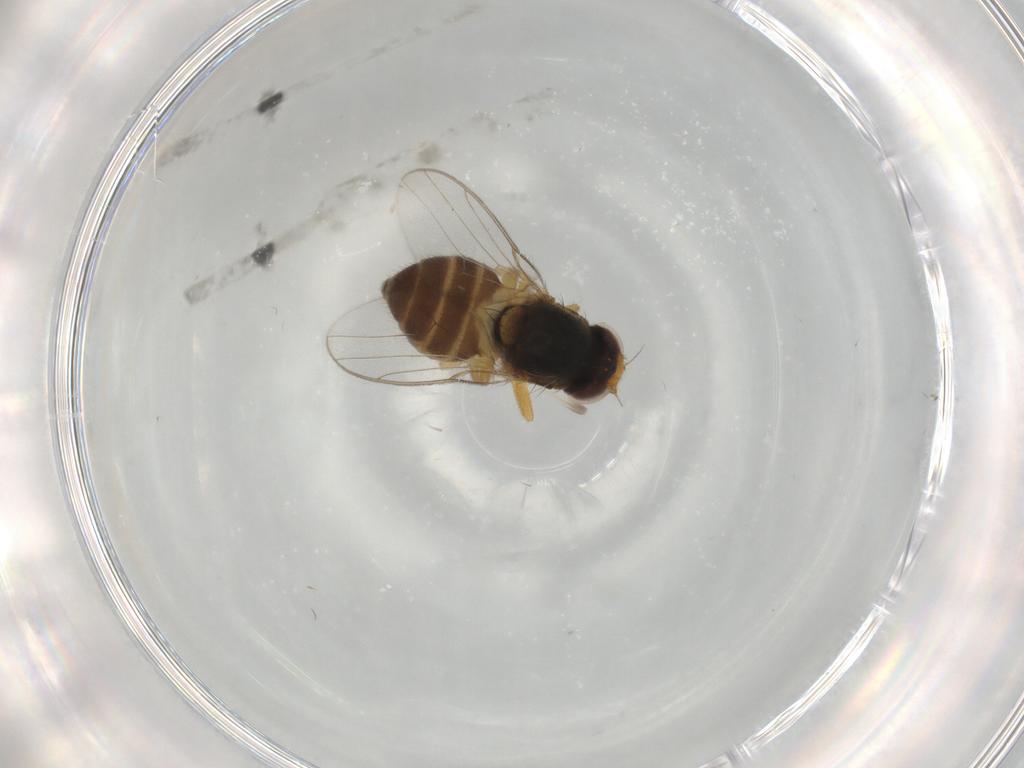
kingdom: Animalia
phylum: Arthropoda
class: Insecta
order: Diptera
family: Chloropidae
